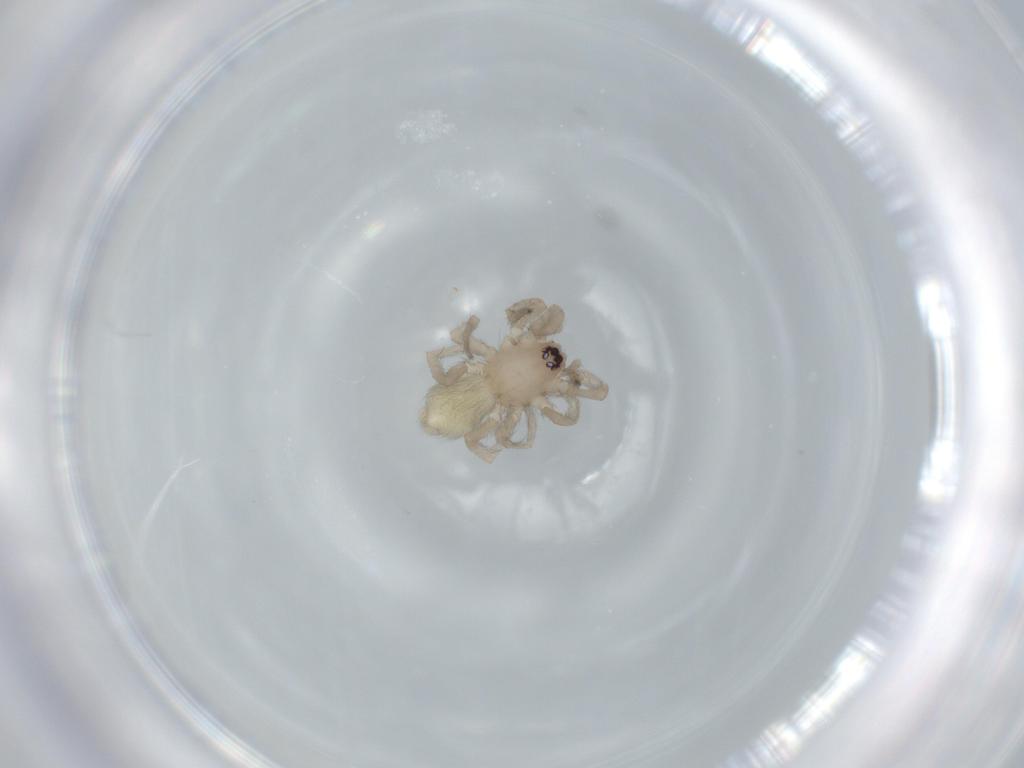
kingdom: Animalia
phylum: Arthropoda
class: Arachnida
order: Araneae
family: Gnaphosidae
